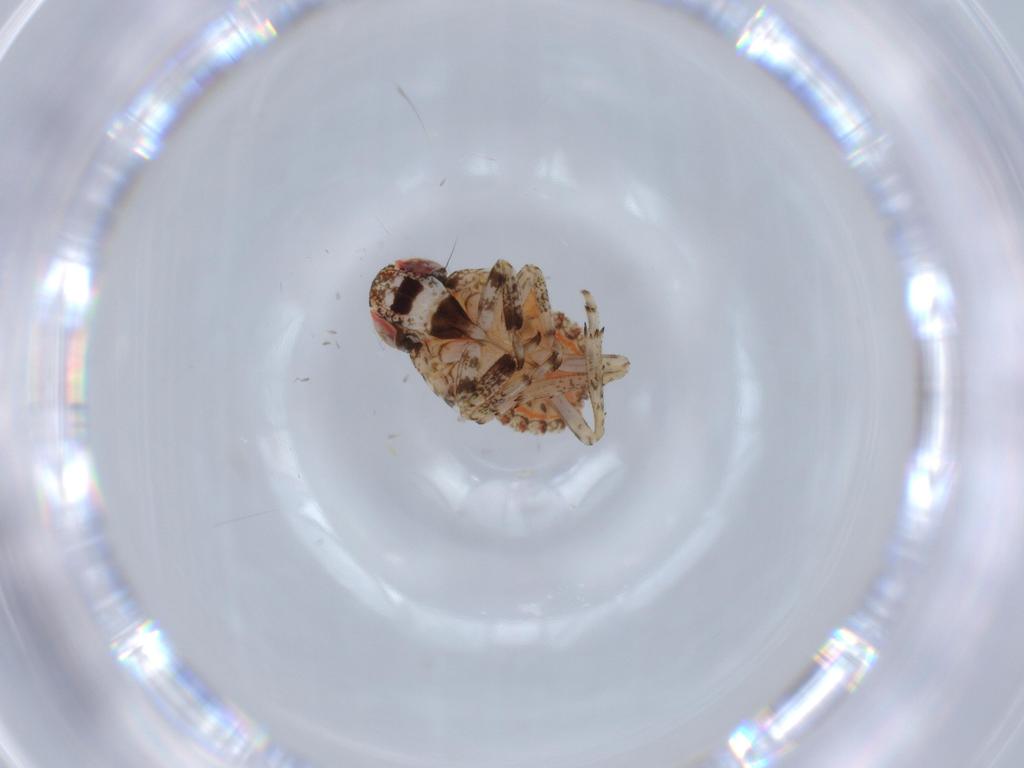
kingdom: Animalia
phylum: Arthropoda
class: Insecta
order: Hemiptera
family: Issidae
